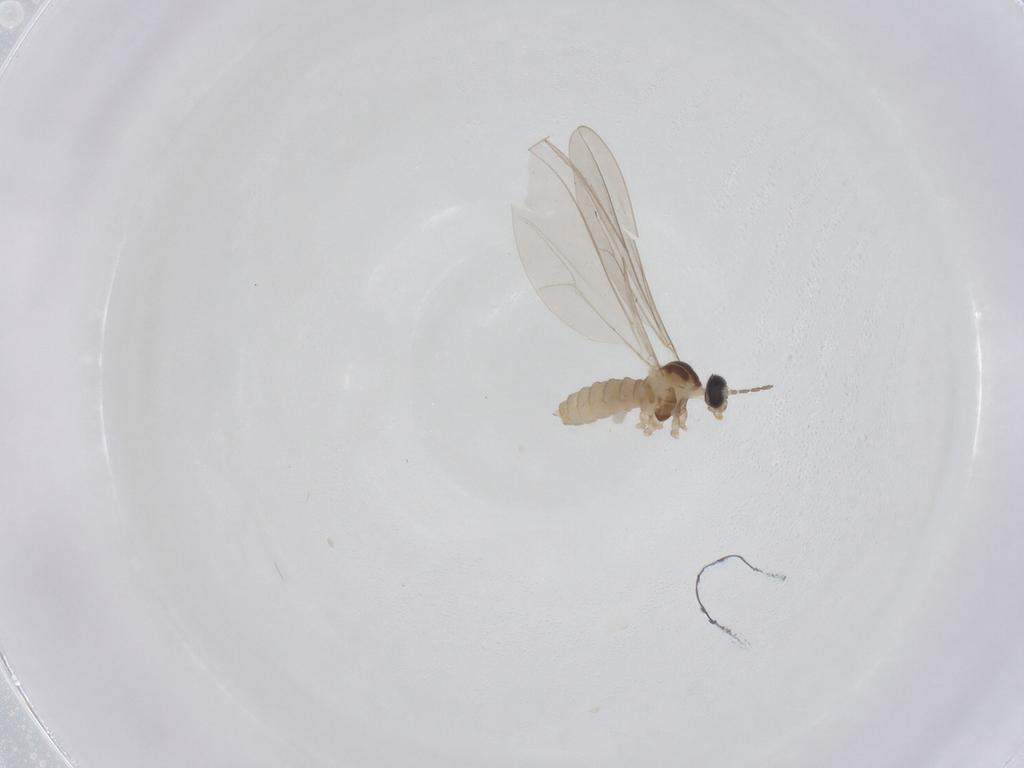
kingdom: Animalia
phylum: Arthropoda
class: Insecta
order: Diptera
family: Cecidomyiidae
